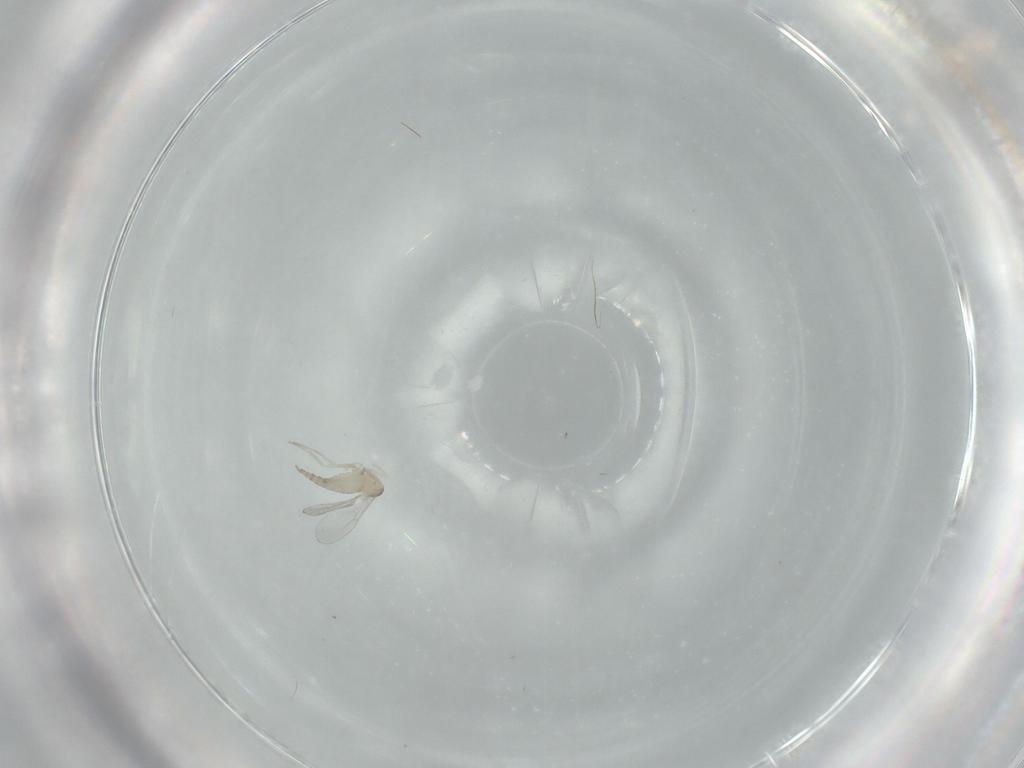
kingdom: Animalia
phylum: Arthropoda
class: Insecta
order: Diptera
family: Cecidomyiidae
